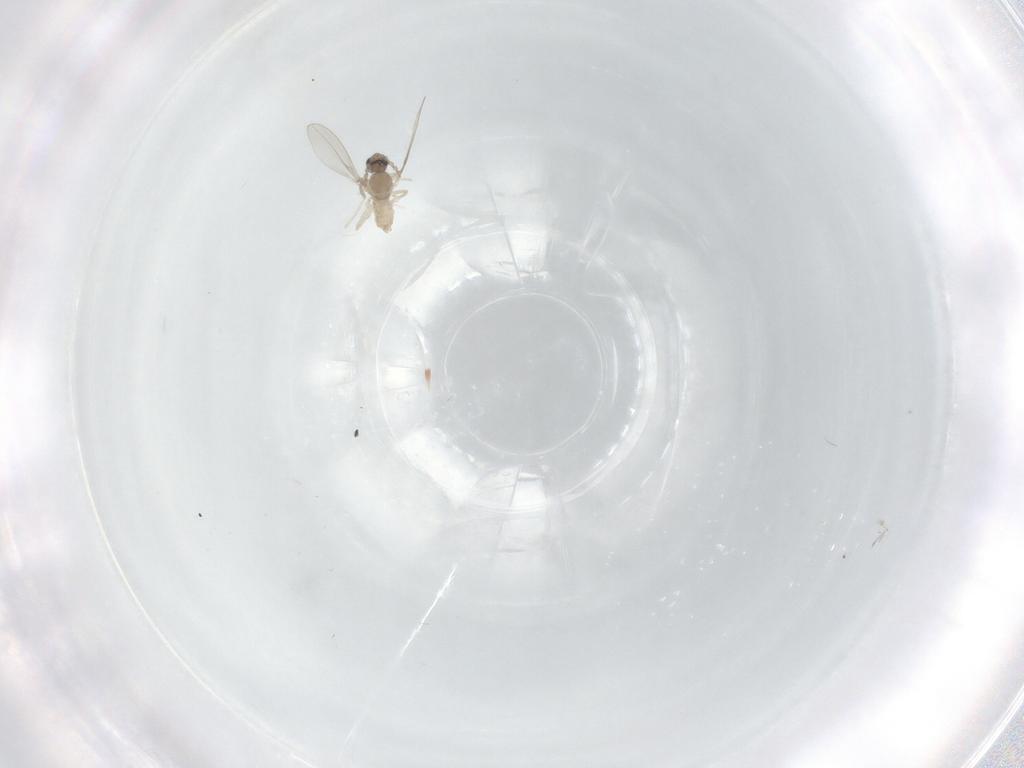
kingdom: Animalia
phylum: Arthropoda
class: Insecta
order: Diptera
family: Cecidomyiidae
